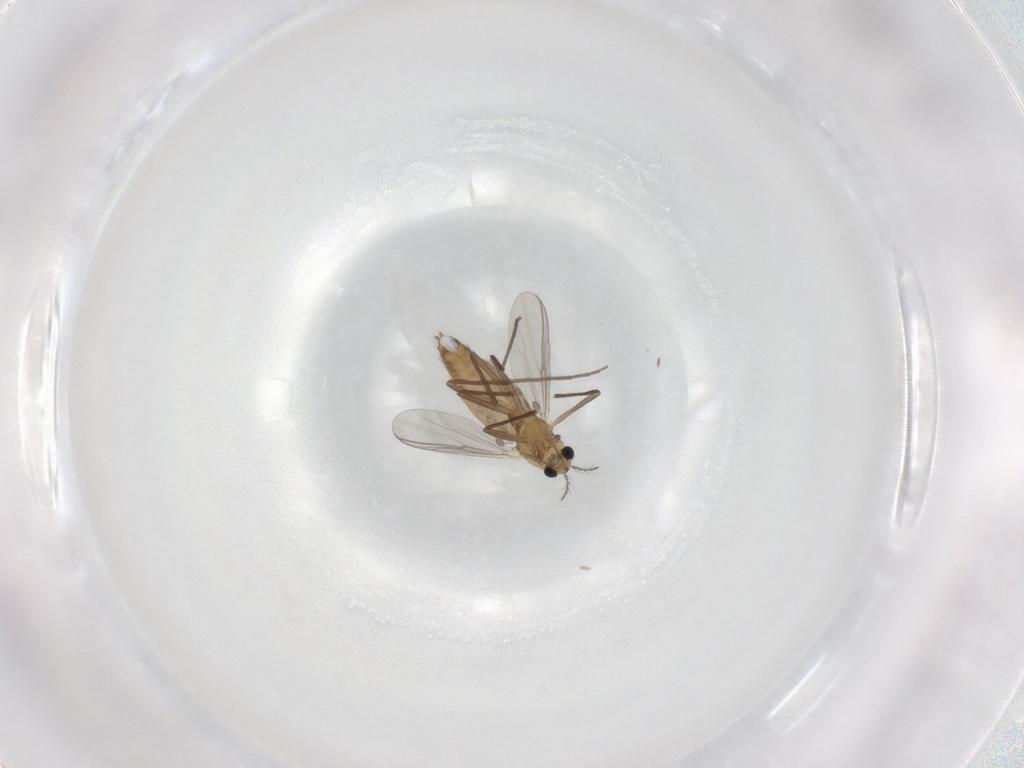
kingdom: Animalia
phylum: Arthropoda
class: Insecta
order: Diptera
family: Chironomidae
